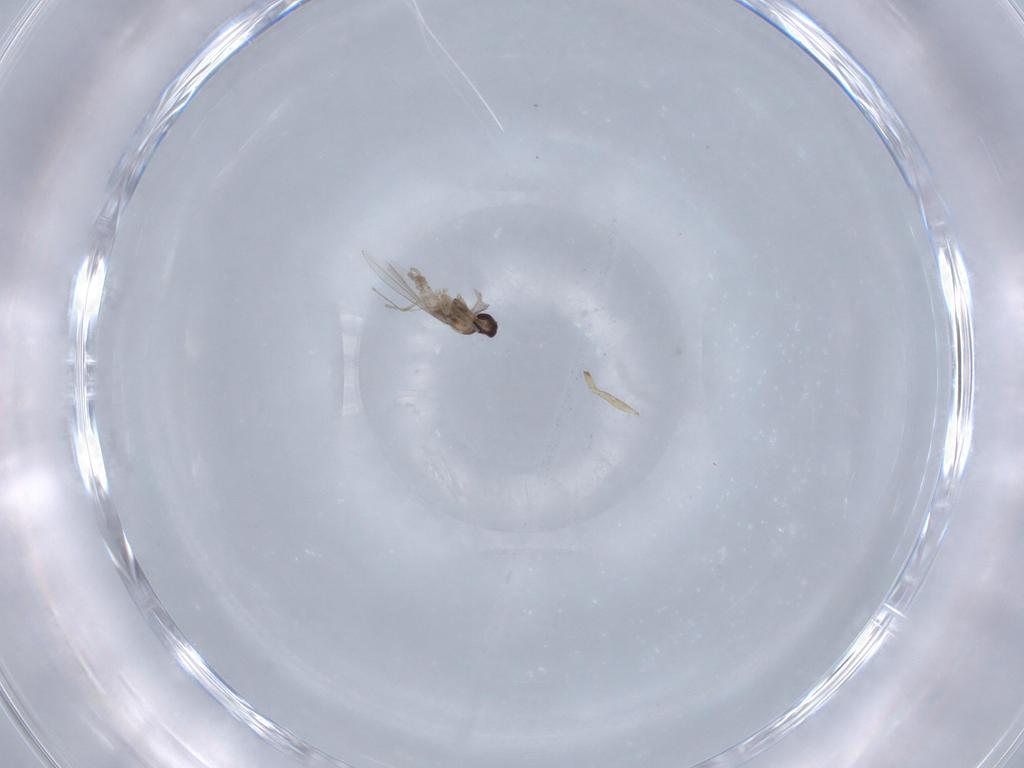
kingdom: Animalia
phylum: Arthropoda
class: Insecta
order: Diptera
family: Cecidomyiidae
